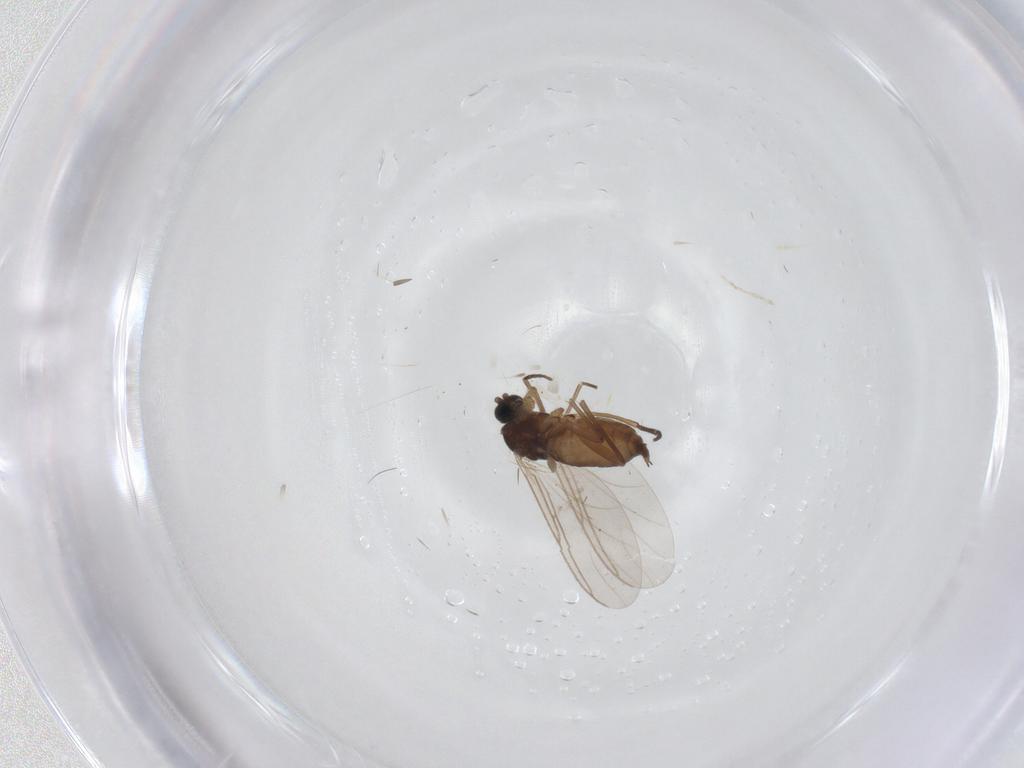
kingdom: Animalia
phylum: Arthropoda
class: Insecta
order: Diptera
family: Sciaridae
